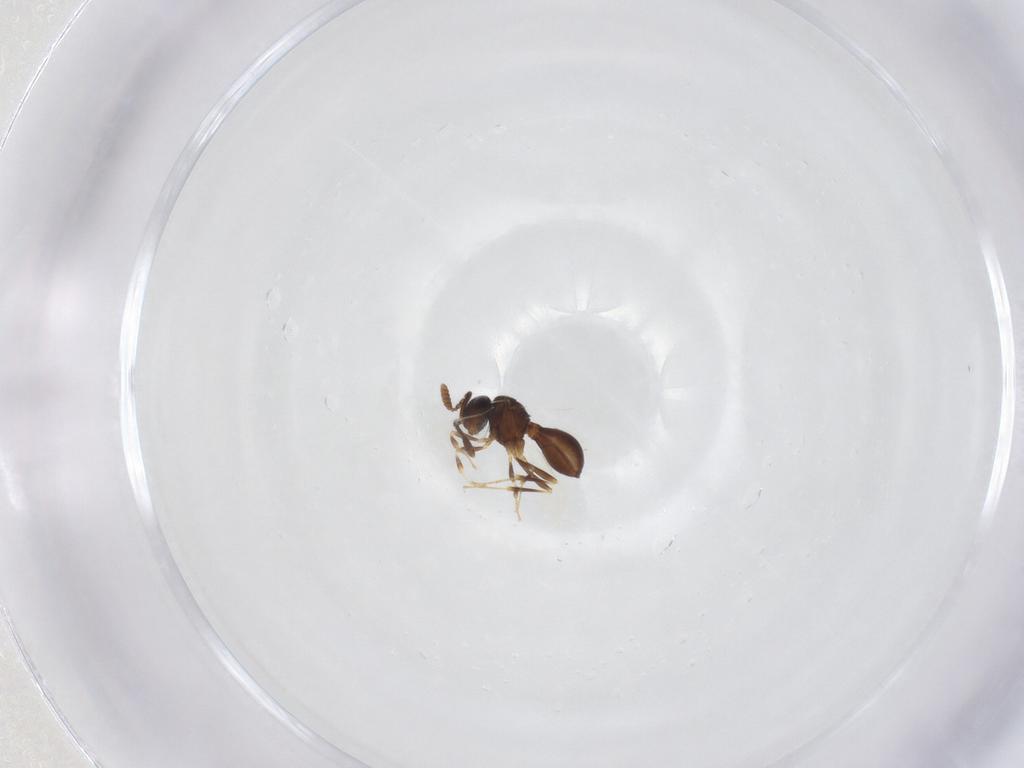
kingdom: Animalia
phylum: Arthropoda
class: Insecta
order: Hymenoptera
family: Scelionidae
